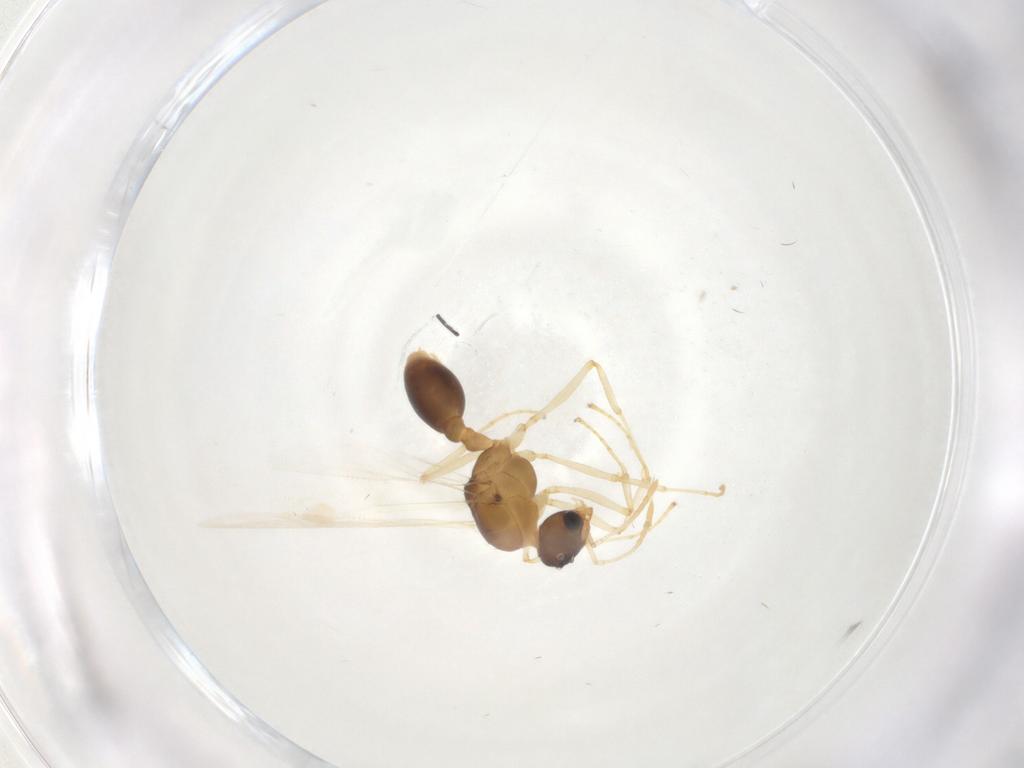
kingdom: Animalia
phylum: Arthropoda
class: Insecta
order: Hymenoptera
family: Formicidae
